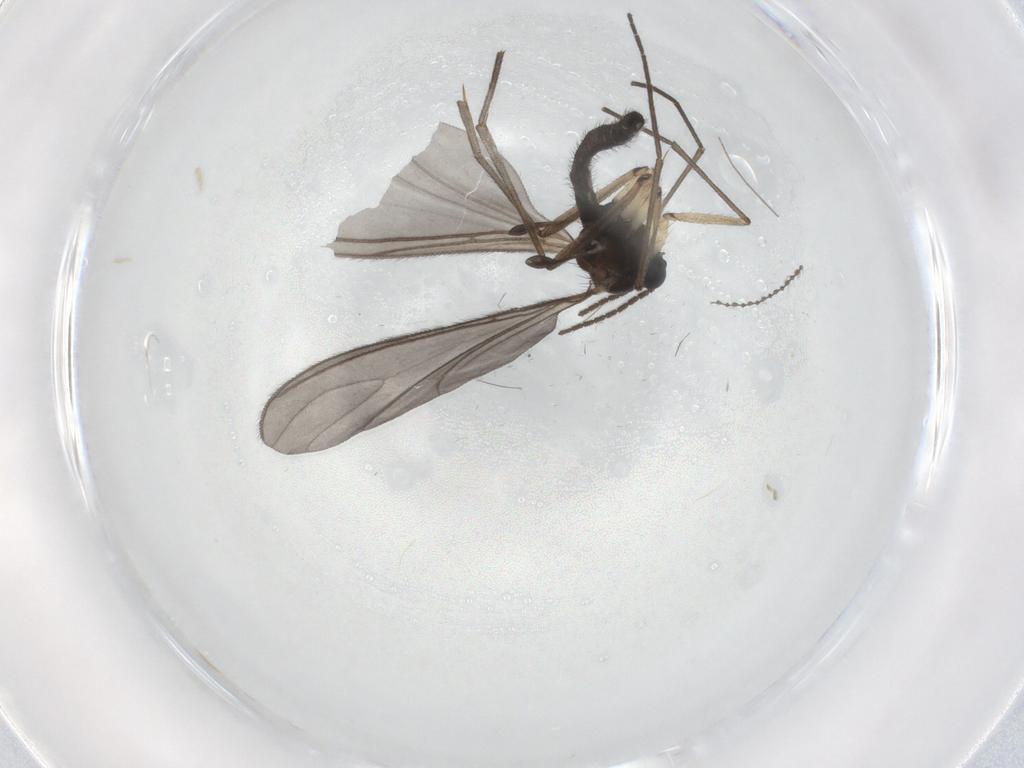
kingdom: Animalia
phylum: Arthropoda
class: Insecta
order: Diptera
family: Sciaridae
